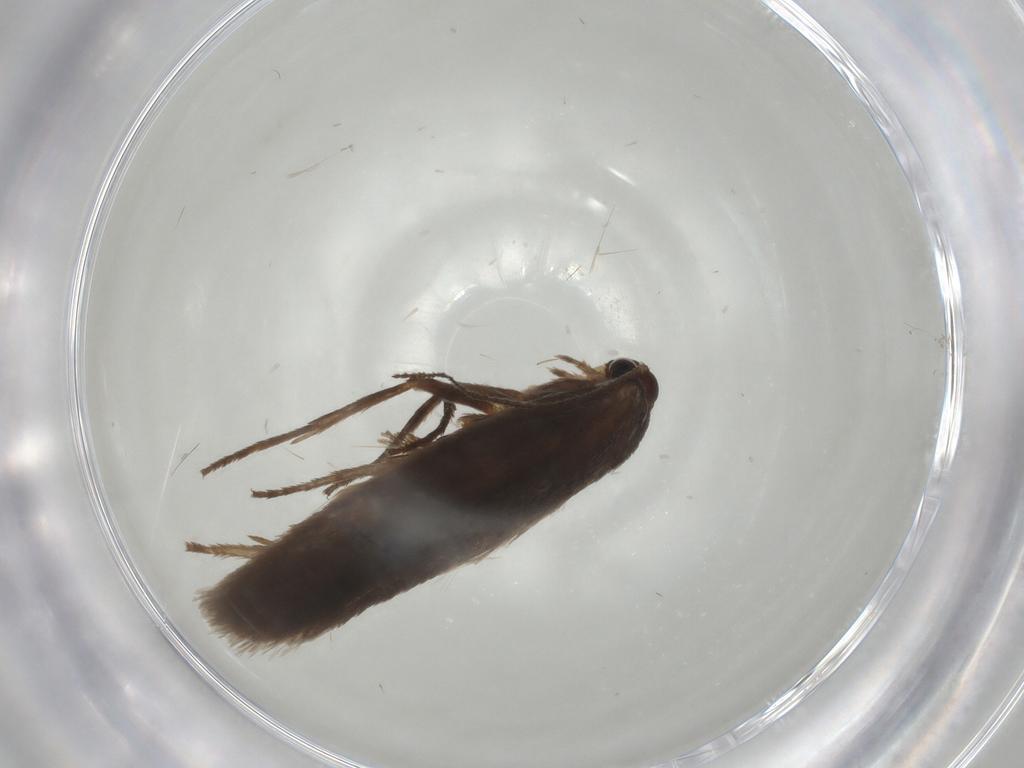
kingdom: Animalia
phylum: Arthropoda
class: Insecta
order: Lepidoptera
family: Limacodidae
